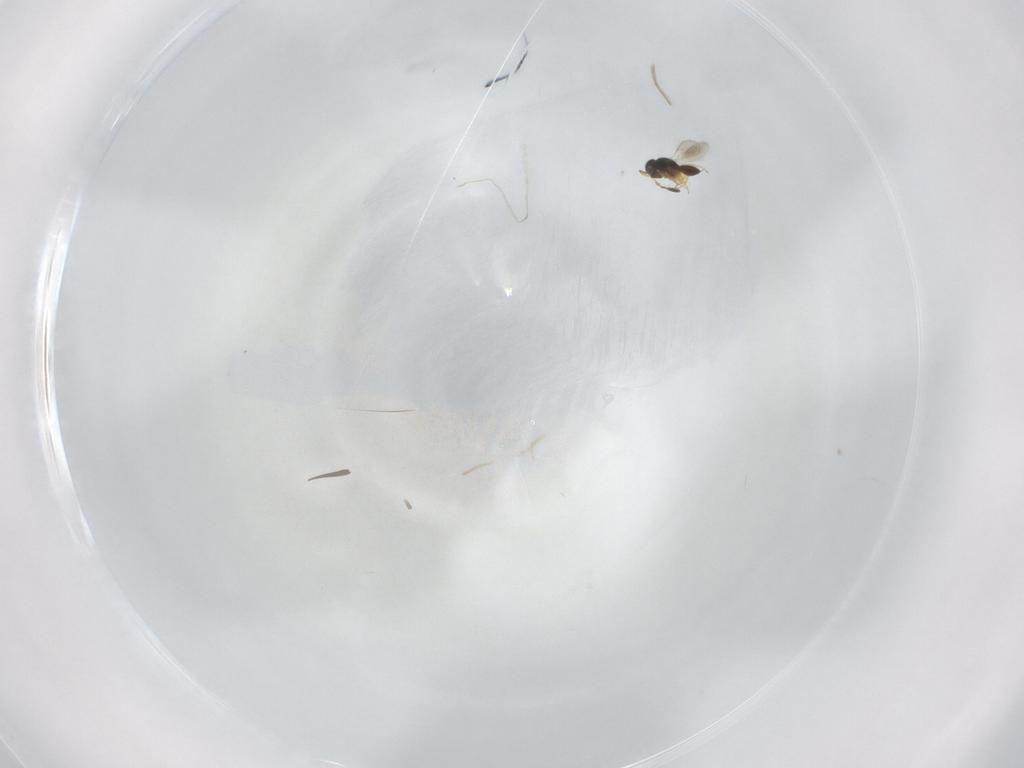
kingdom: Animalia
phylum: Arthropoda
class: Insecta
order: Hymenoptera
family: Scelionidae
